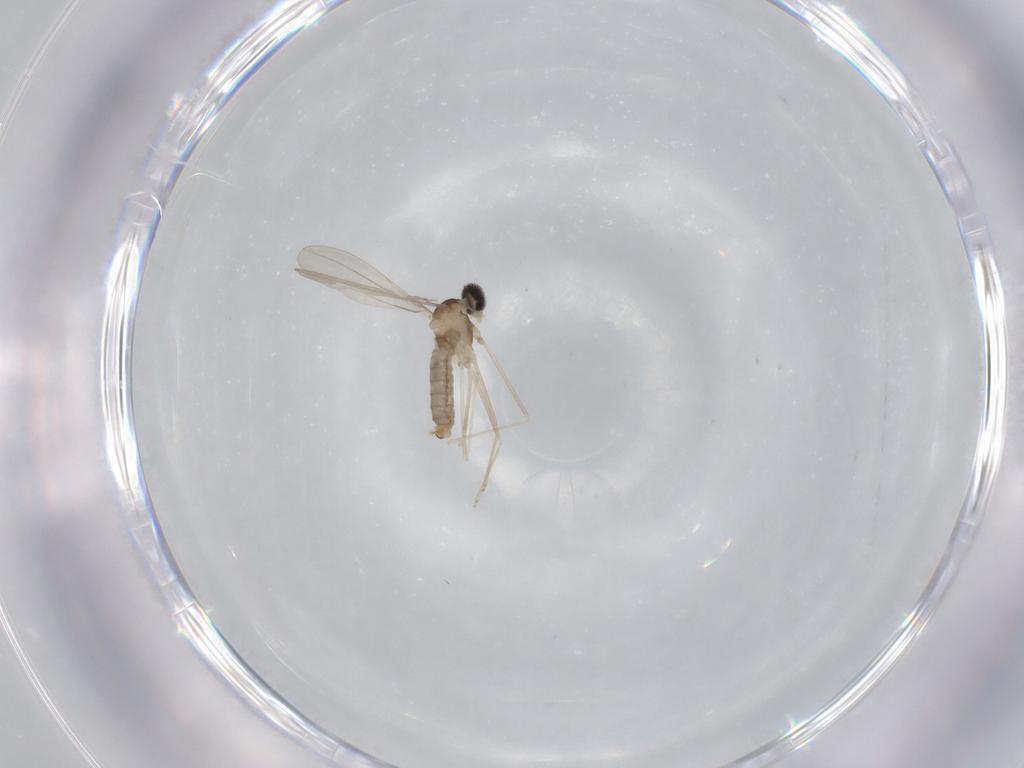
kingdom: Animalia
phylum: Arthropoda
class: Insecta
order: Diptera
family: Cecidomyiidae
